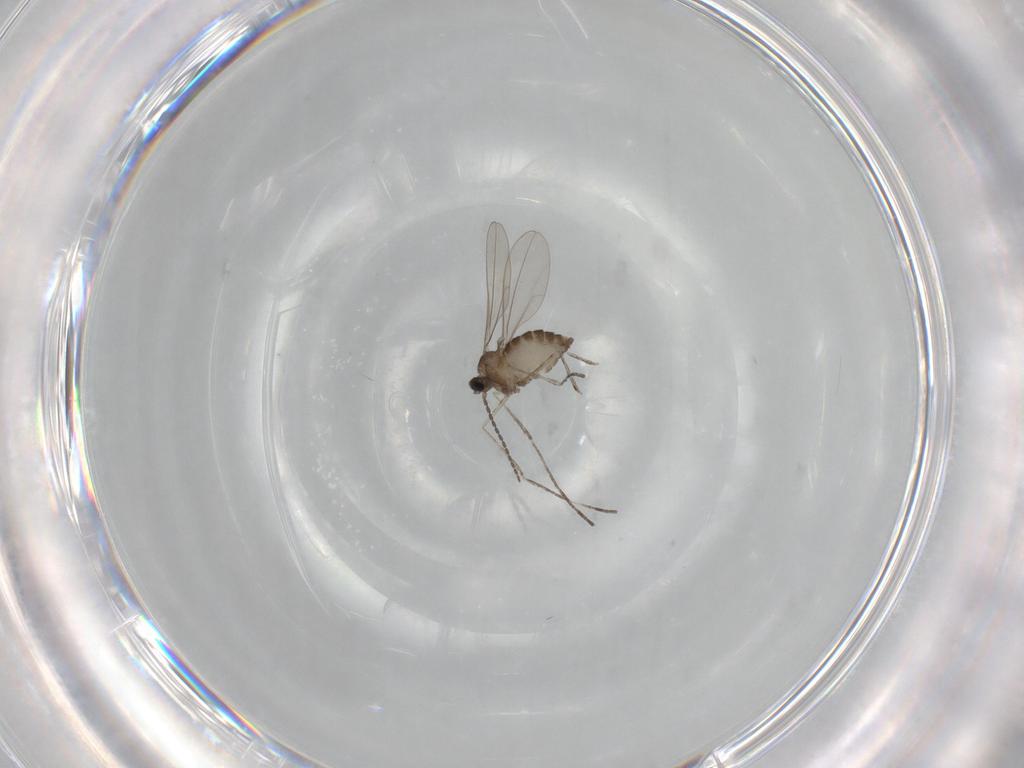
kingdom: Animalia
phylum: Arthropoda
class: Insecta
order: Diptera
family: Cecidomyiidae
